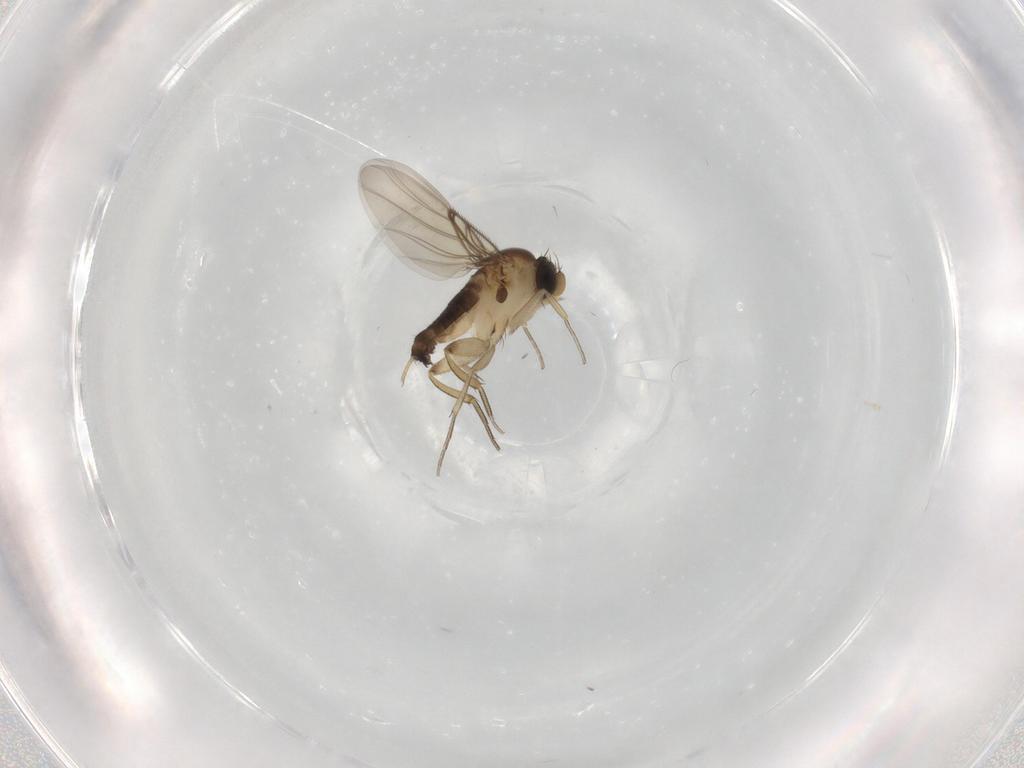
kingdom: Animalia
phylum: Arthropoda
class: Insecta
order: Diptera
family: Phoridae
